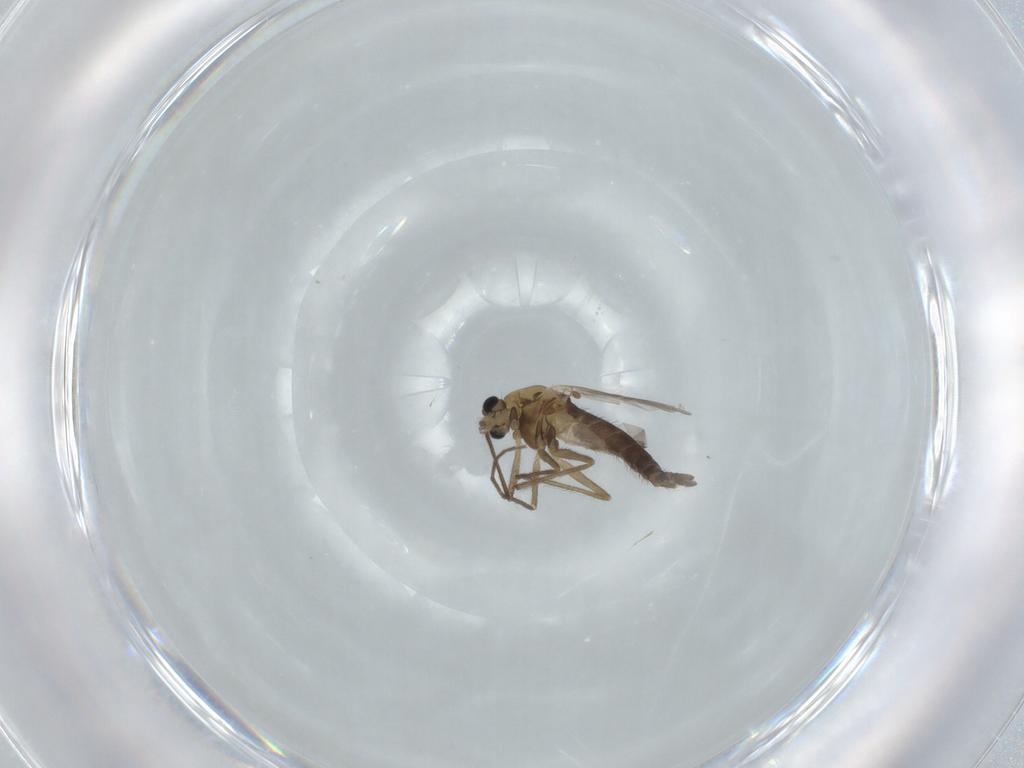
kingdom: Animalia
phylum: Arthropoda
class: Insecta
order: Diptera
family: Chironomidae
